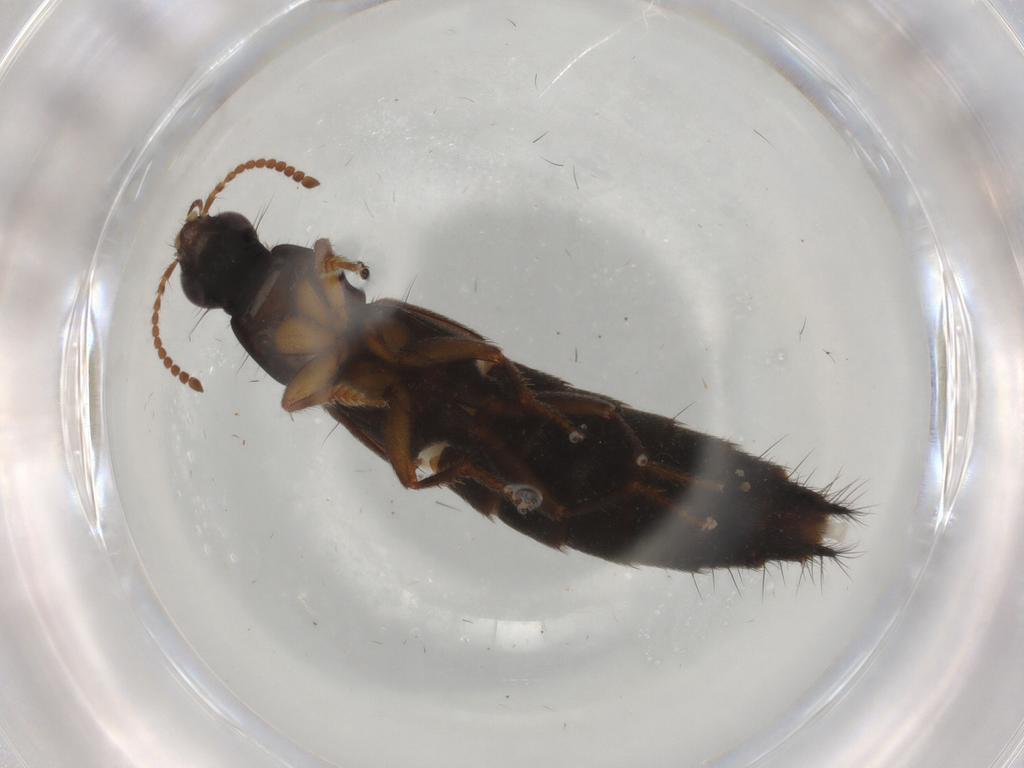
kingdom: Animalia
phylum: Arthropoda
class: Insecta
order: Coleoptera
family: Staphylinidae
